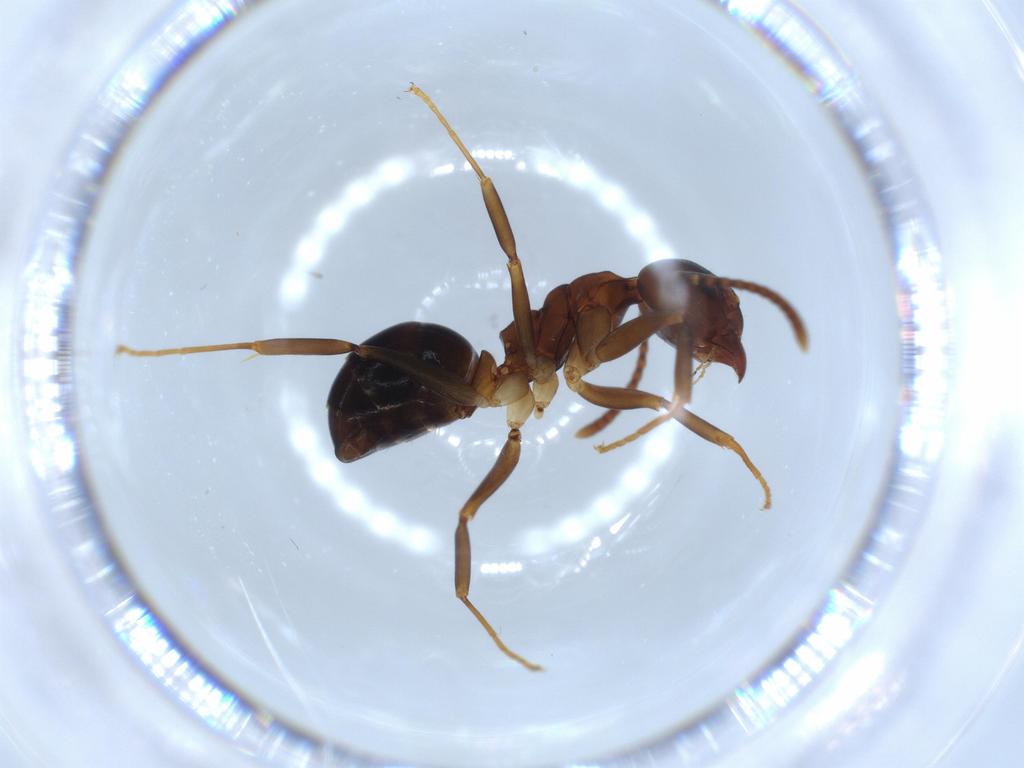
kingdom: Animalia
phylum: Arthropoda
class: Insecta
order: Hymenoptera
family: Formicidae
